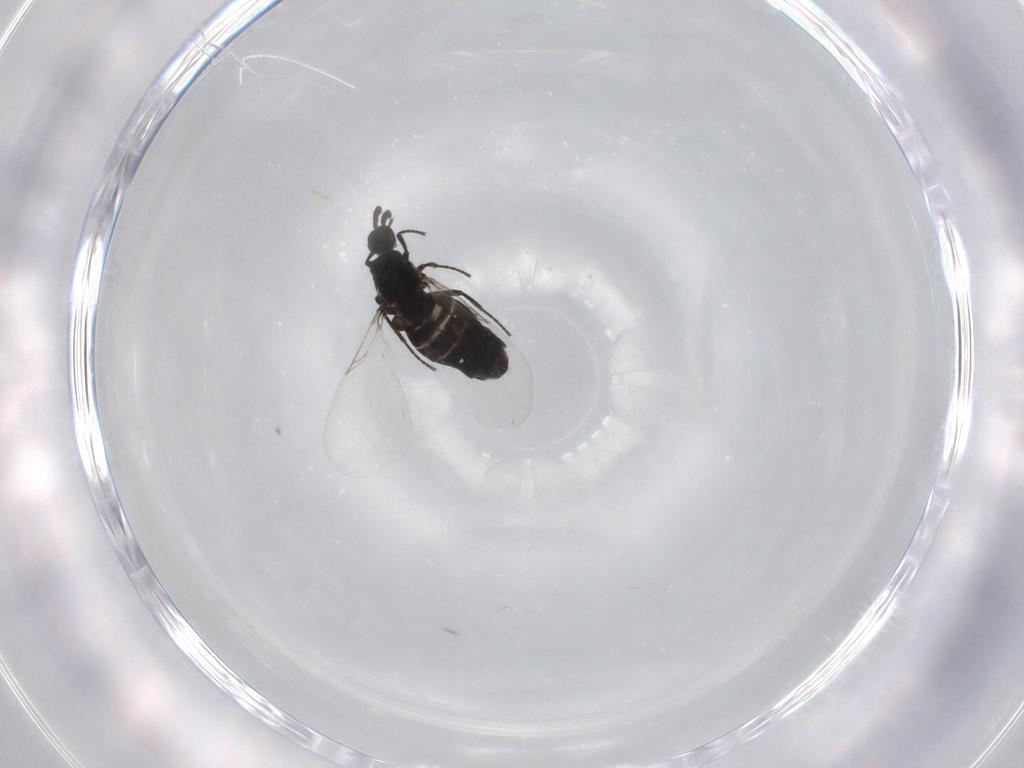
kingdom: Animalia
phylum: Arthropoda
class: Insecta
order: Diptera
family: Scatopsidae
